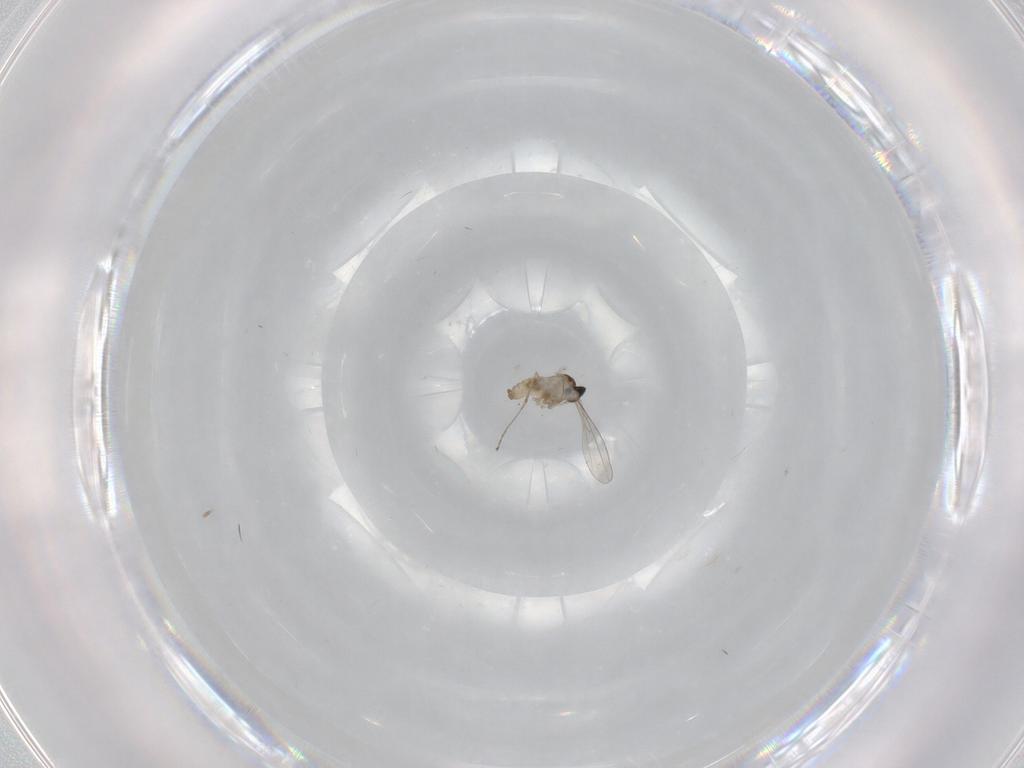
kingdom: Animalia
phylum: Arthropoda
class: Insecta
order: Diptera
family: Cecidomyiidae
